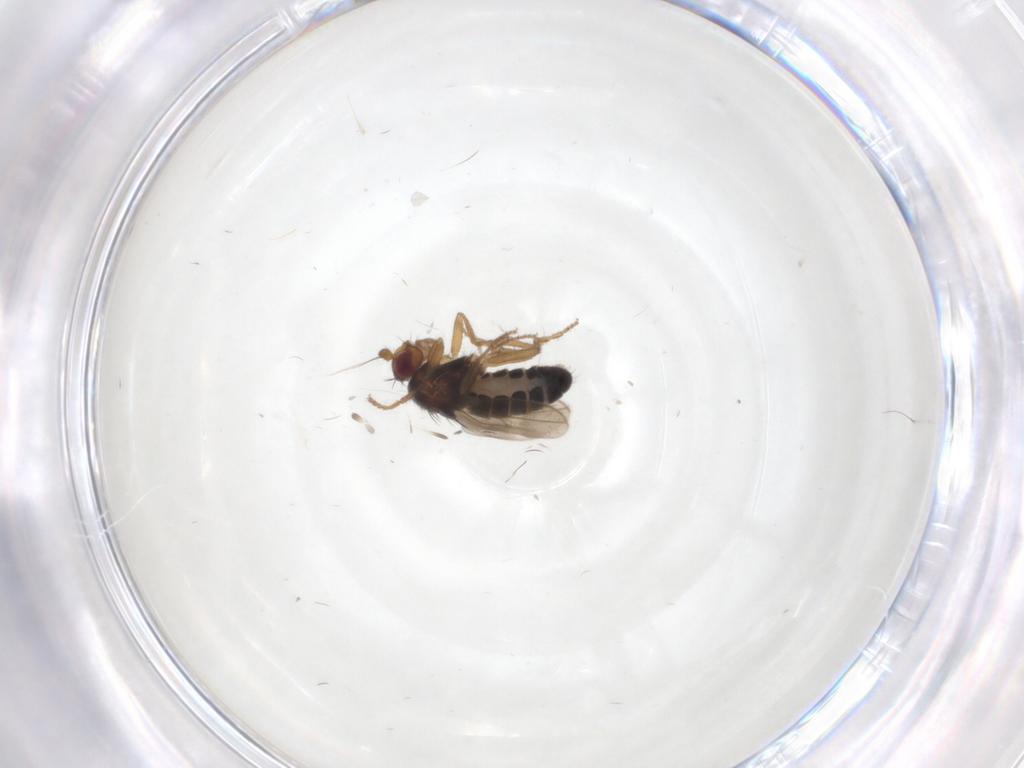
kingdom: Animalia
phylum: Arthropoda
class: Insecta
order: Diptera
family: Sphaeroceridae
